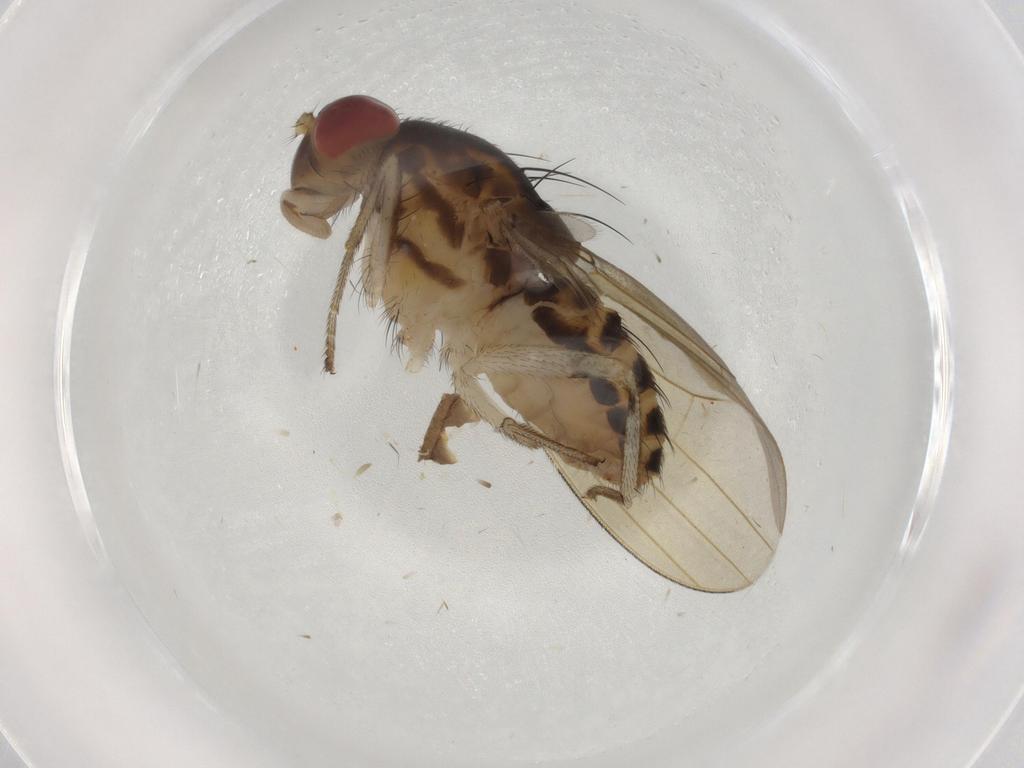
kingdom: Animalia
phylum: Arthropoda
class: Insecta
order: Diptera
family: Lauxaniidae
